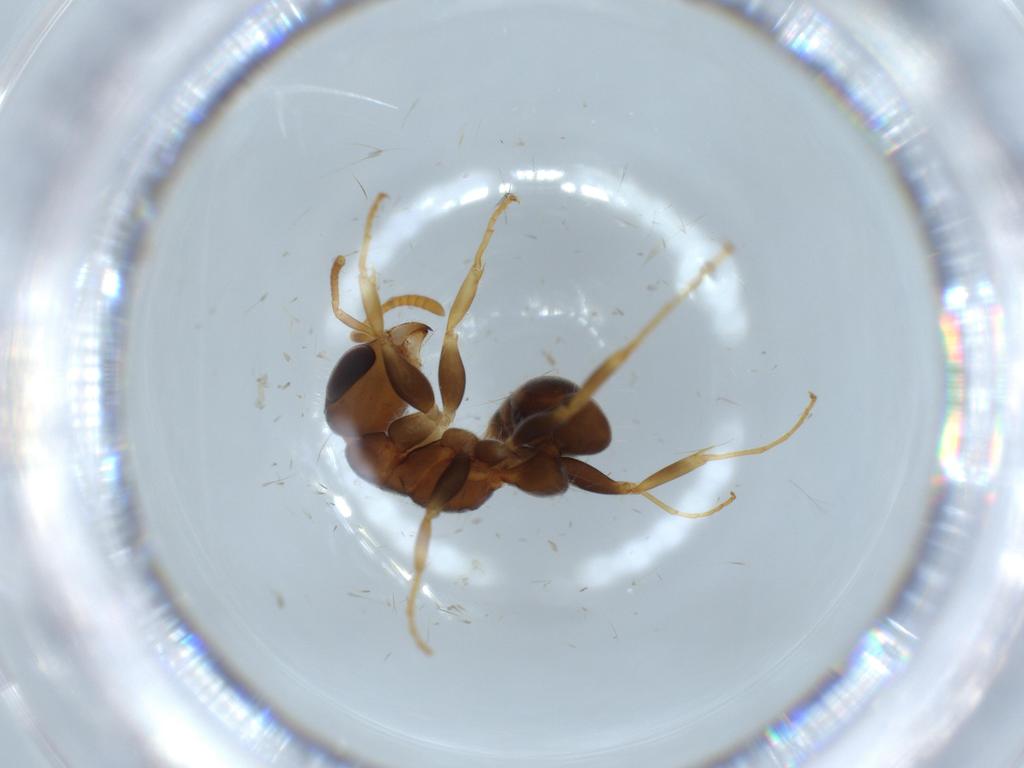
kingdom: Animalia
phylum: Arthropoda
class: Insecta
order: Hymenoptera
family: Formicidae
